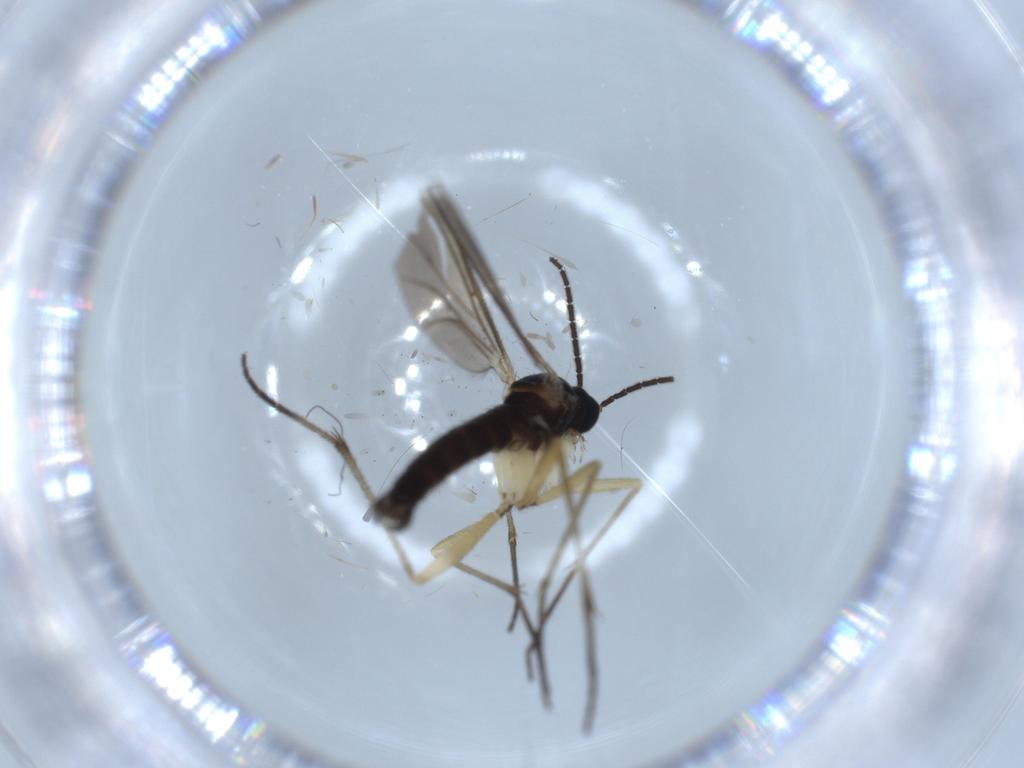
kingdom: Animalia
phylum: Arthropoda
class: Insecta
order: Diptera
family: Sciaridae
